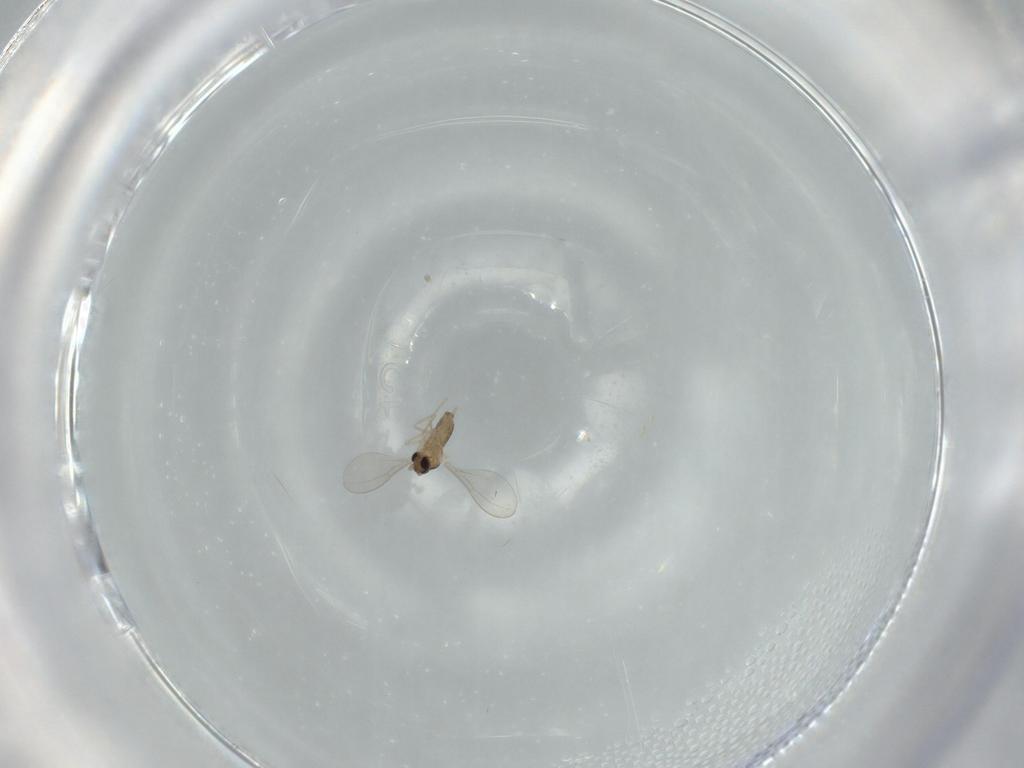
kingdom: Animalia
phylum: Arthropoda
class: Insecta
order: Diptera
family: Cecidomyiidae
